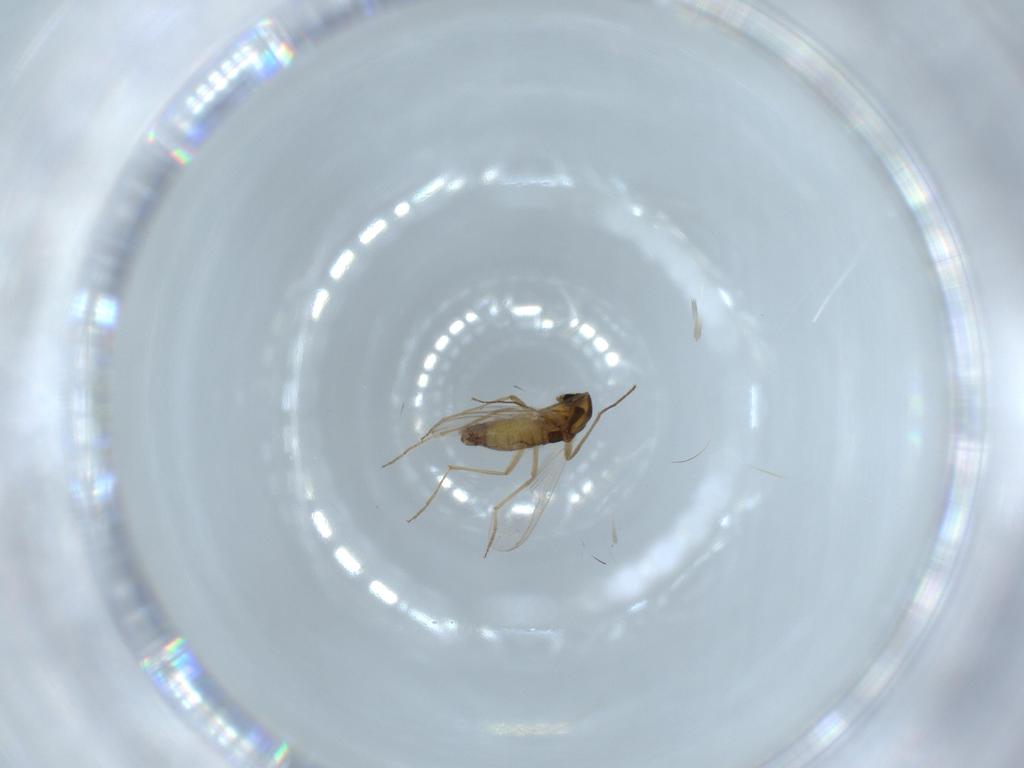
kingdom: Animalia
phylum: Arthropoda
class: Insecta
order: Diptera
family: Chironomidae
